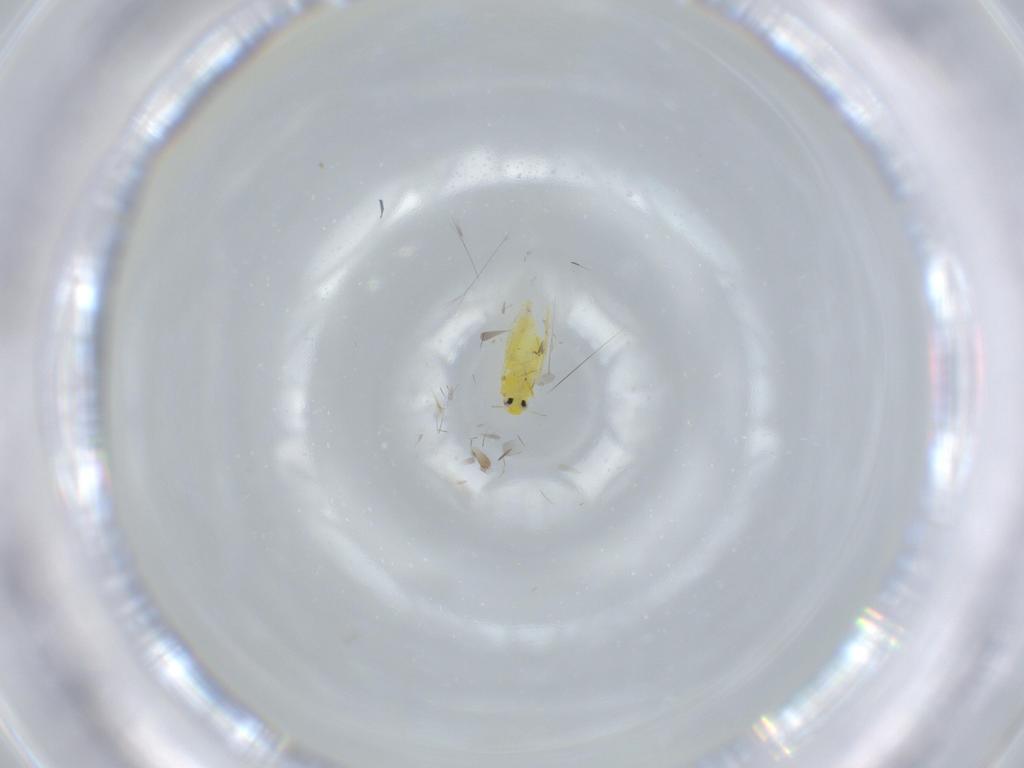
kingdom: Animalia
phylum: Arthropoda
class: Insecta
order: Hemiptera
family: Aleyrodidae
